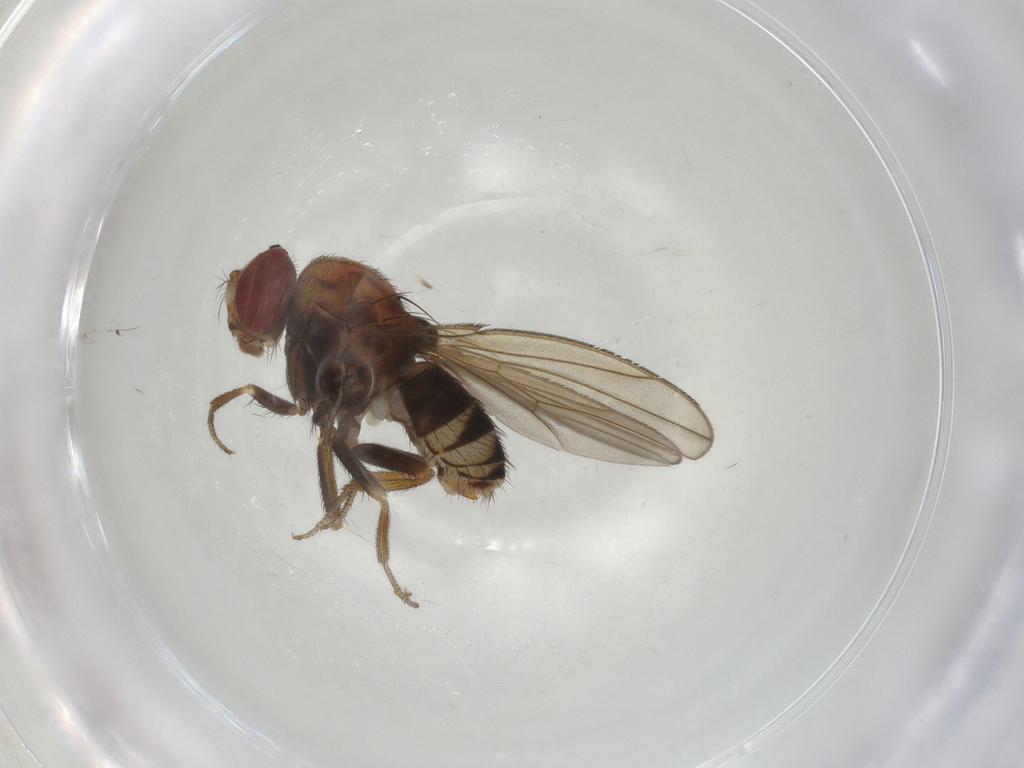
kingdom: Animalia
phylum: Arthropoda
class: Insecta
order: Diptera
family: Drosophilidae
